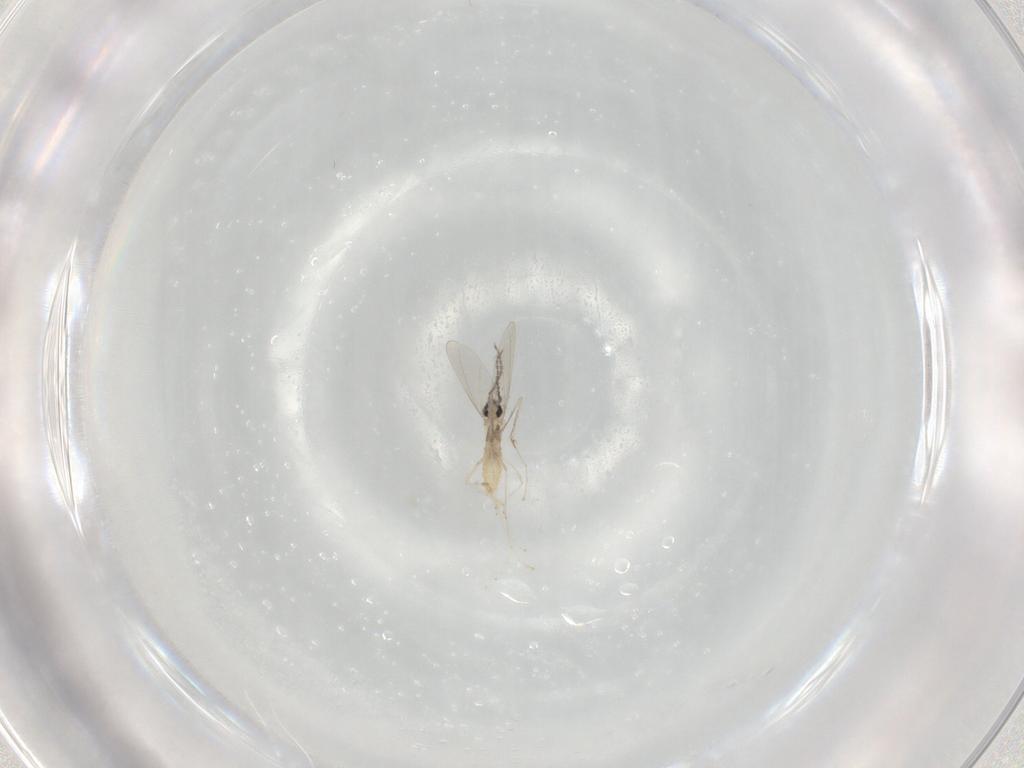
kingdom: Animalia
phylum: Arthropoda
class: Insecta
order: Diptera
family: Cecidomyiidae
